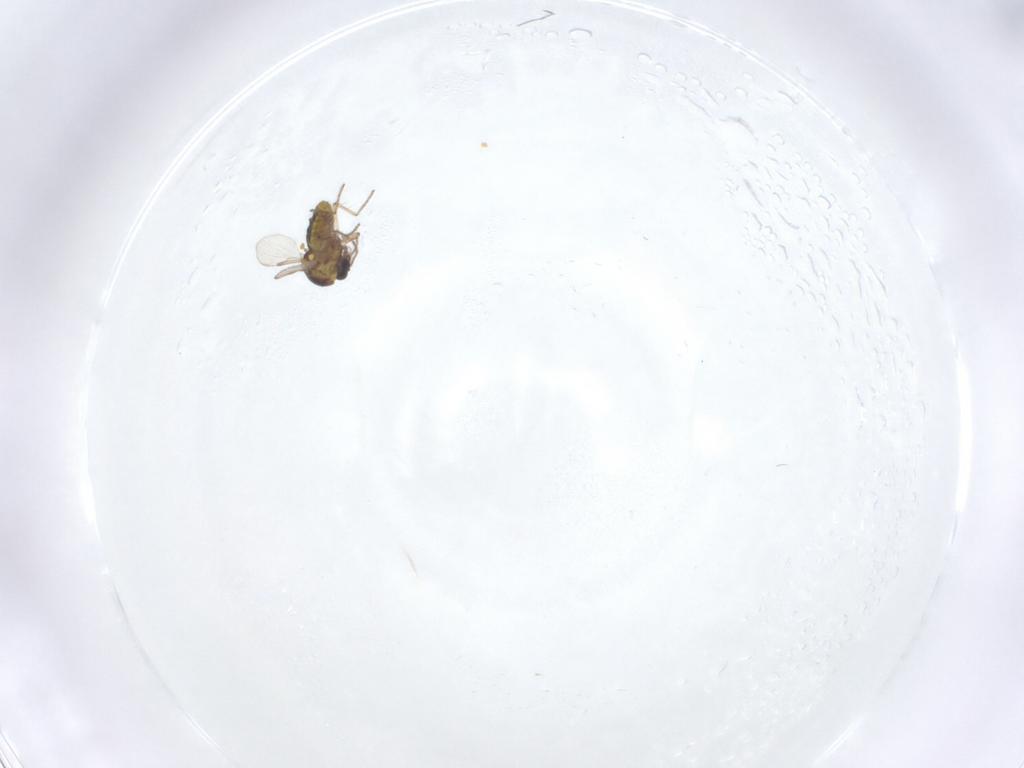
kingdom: Animalia
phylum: Arthropoda
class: Insecta
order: Diptera
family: Ceratopogonidae
